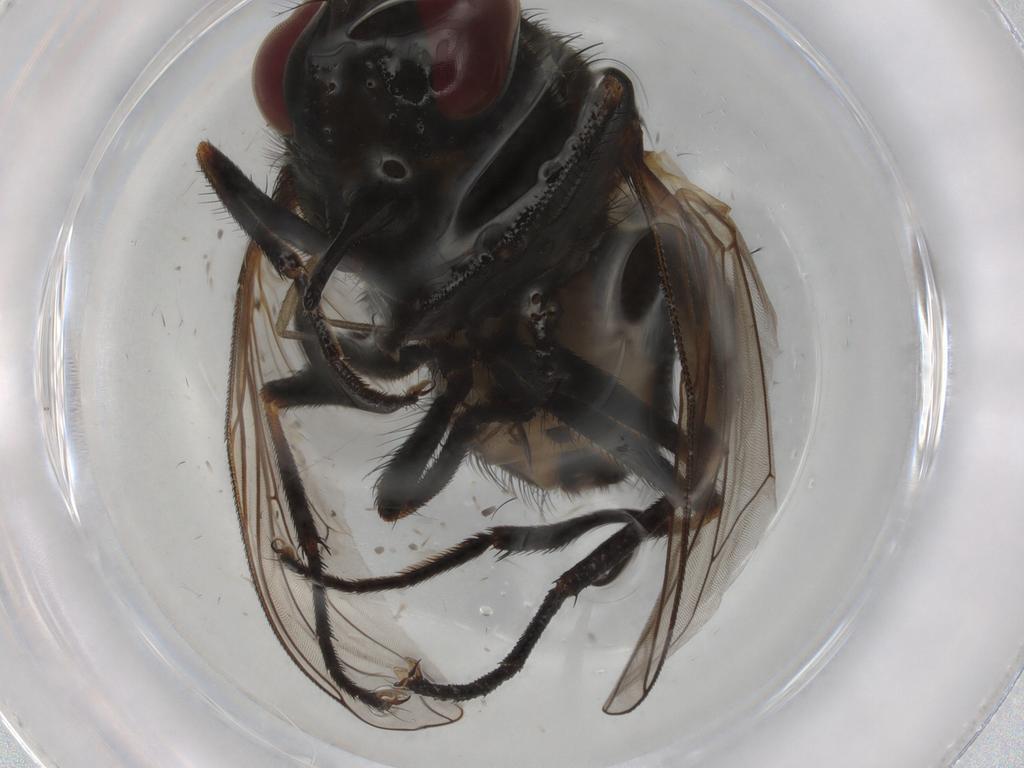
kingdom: Animalia
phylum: Arthropoda
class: Insecta
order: Diptera
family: Muscidae
